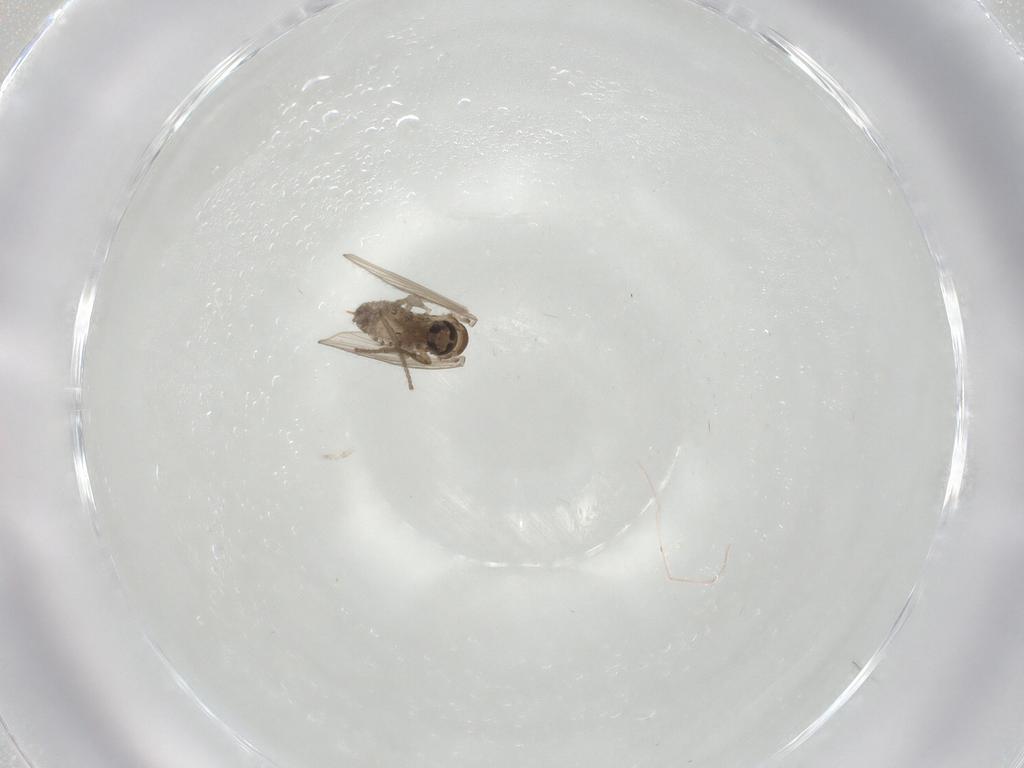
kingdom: Animalia
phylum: Arthropoda
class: Insecta
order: Diptera
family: Psychodidae
